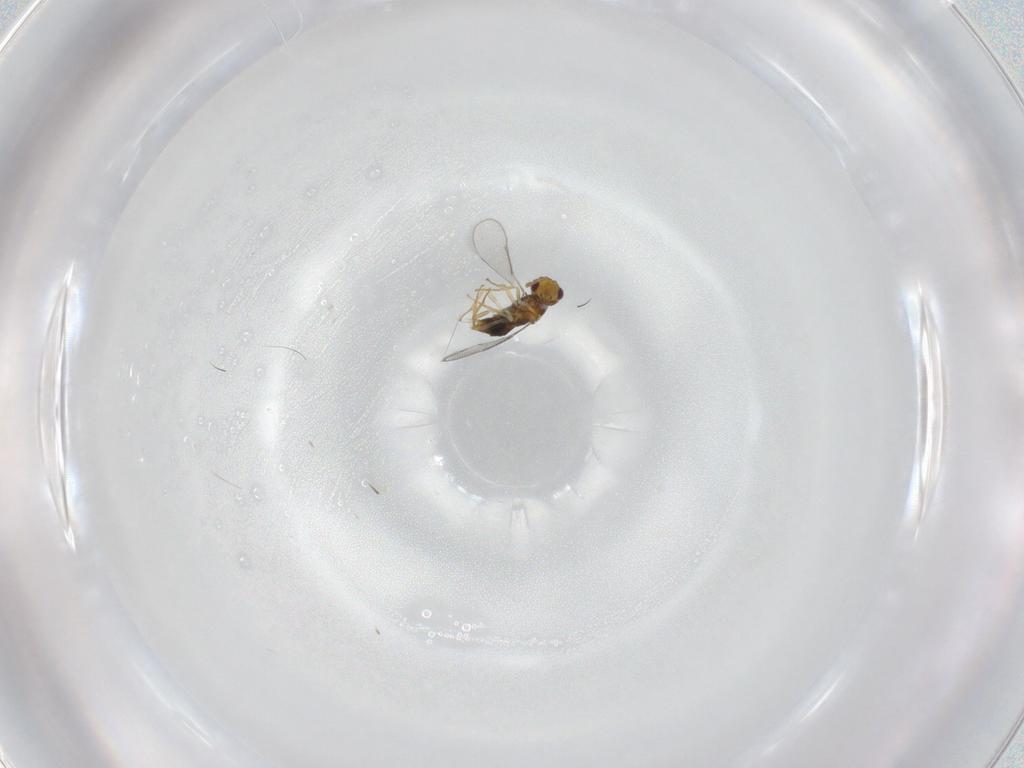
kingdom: Animalia
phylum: Arthropoda
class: Insecta
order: Hymenoptera
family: Aphelinidae
